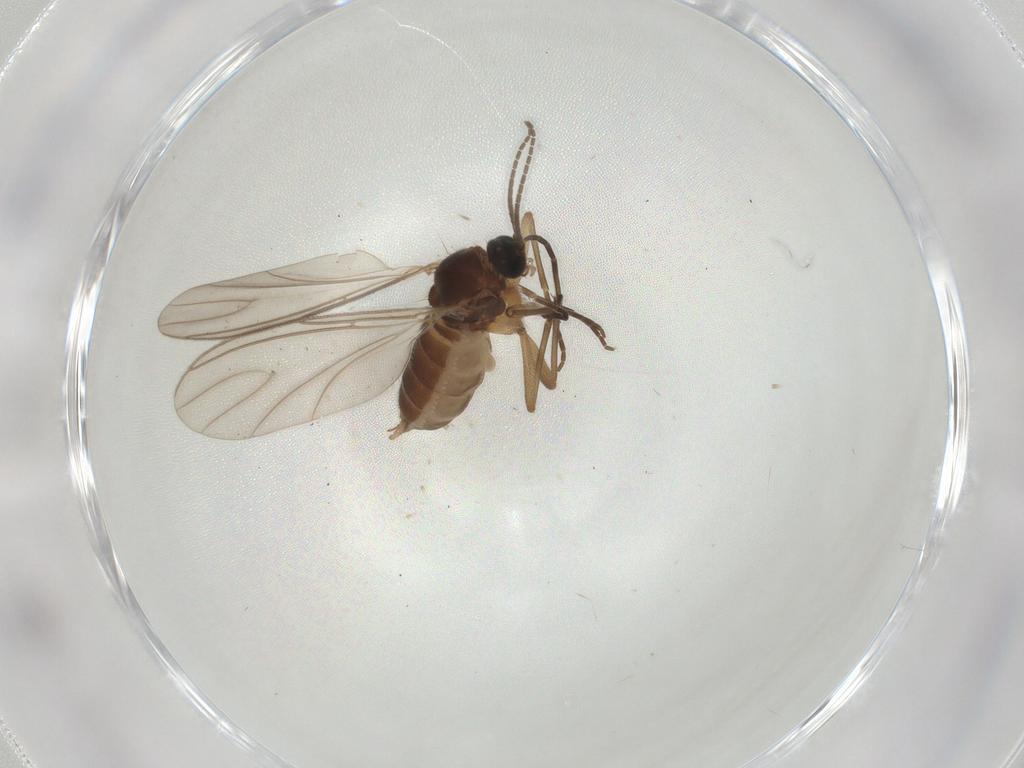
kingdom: Animalia
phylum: Arthropoda
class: Insecta
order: Diptera
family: Sciaridae
